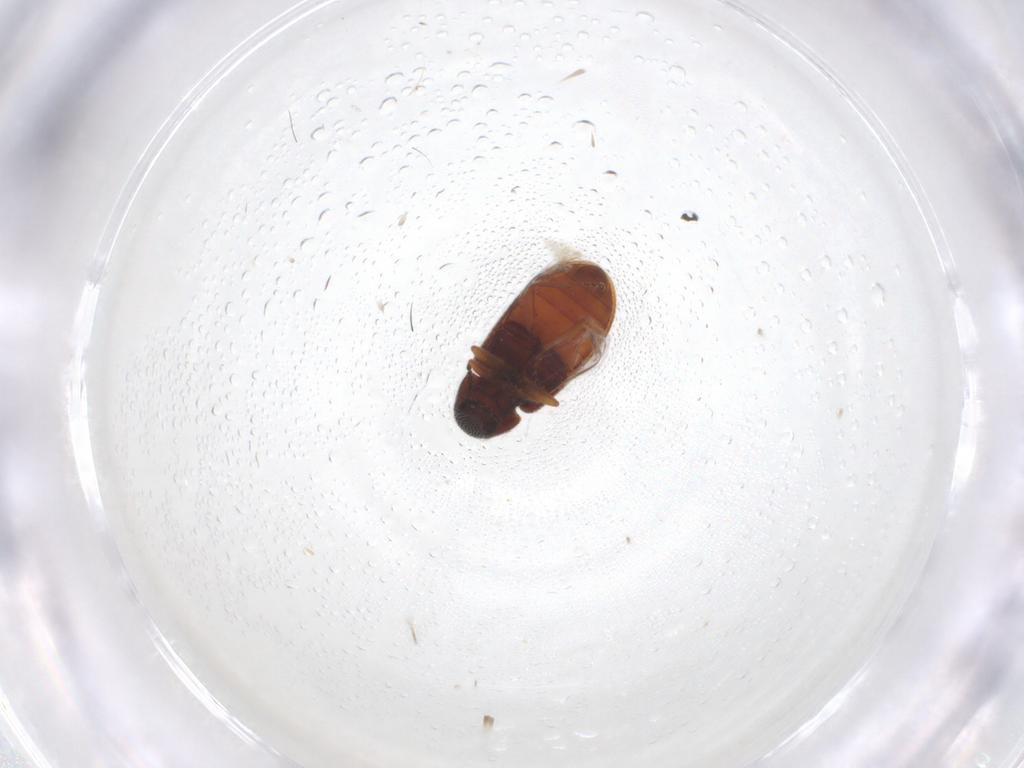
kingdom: Animalia
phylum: Arthropoda
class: Insecta
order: Coleoptera
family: Rhadalidae
